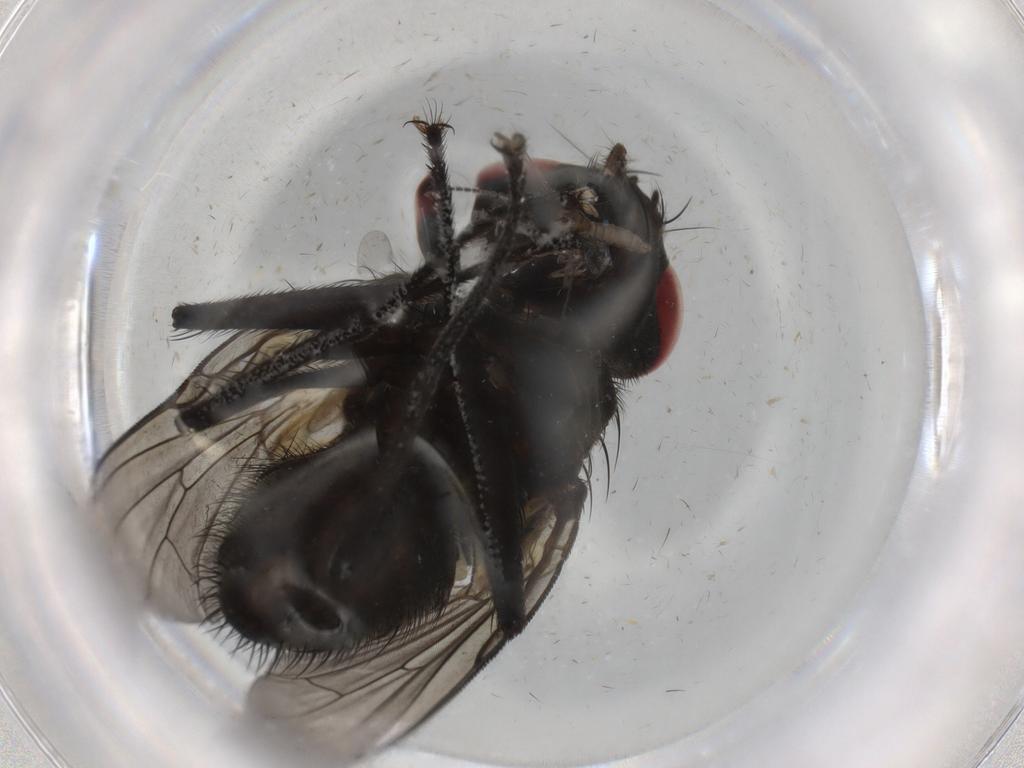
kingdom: Animalia
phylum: Arthropoda
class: Insecta
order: Diptera
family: Muscidae
